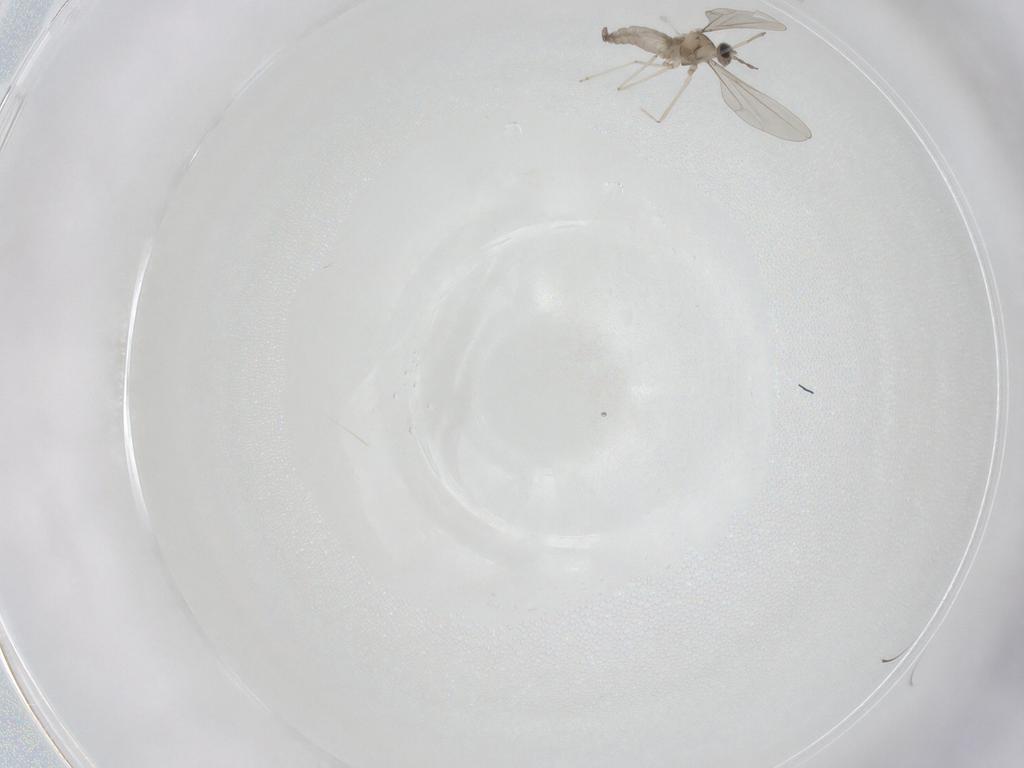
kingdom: Animalia
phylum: Arthropoda
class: Insecta
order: Diptera
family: Cecidomyiidae
